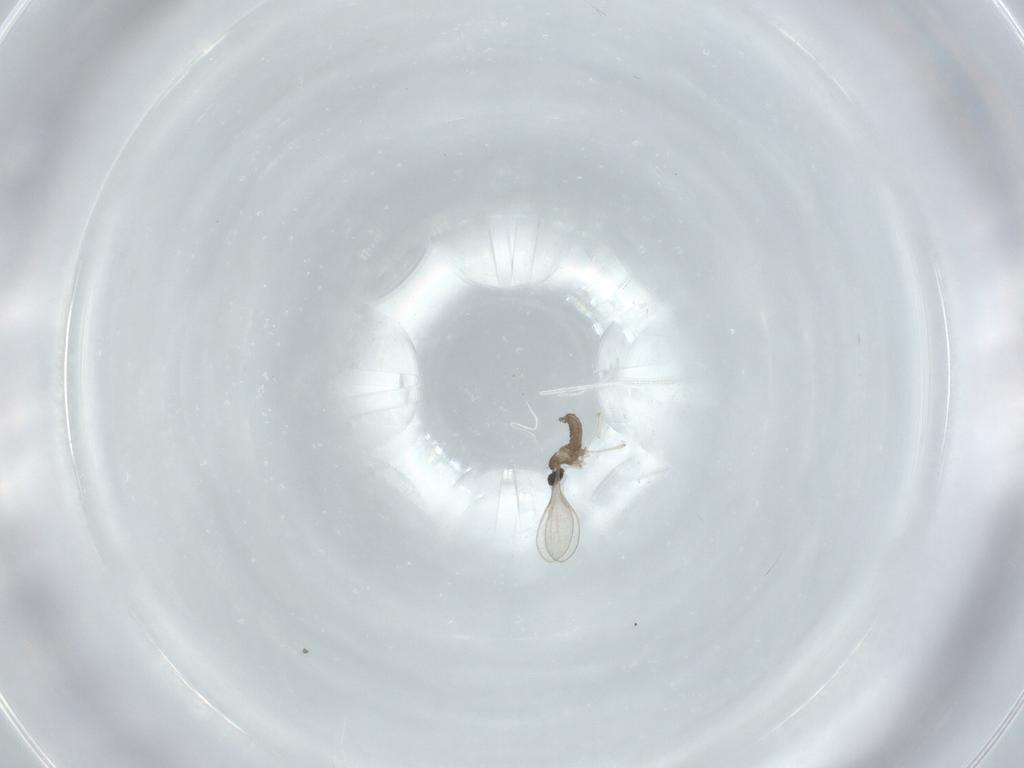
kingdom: Animalia
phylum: Arthropoda
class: Insecta
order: Diptera
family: Cecidomyiidae
